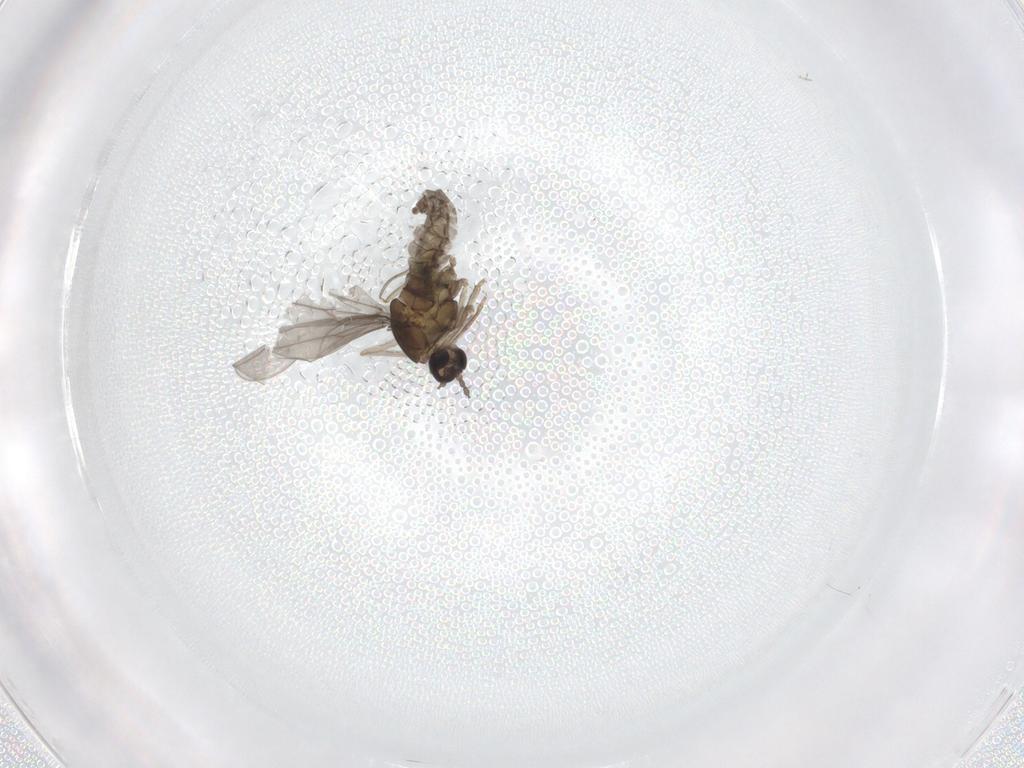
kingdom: Animalia
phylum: Arthropoda
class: Insecta
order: Diptera
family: Cecidomyiidae
